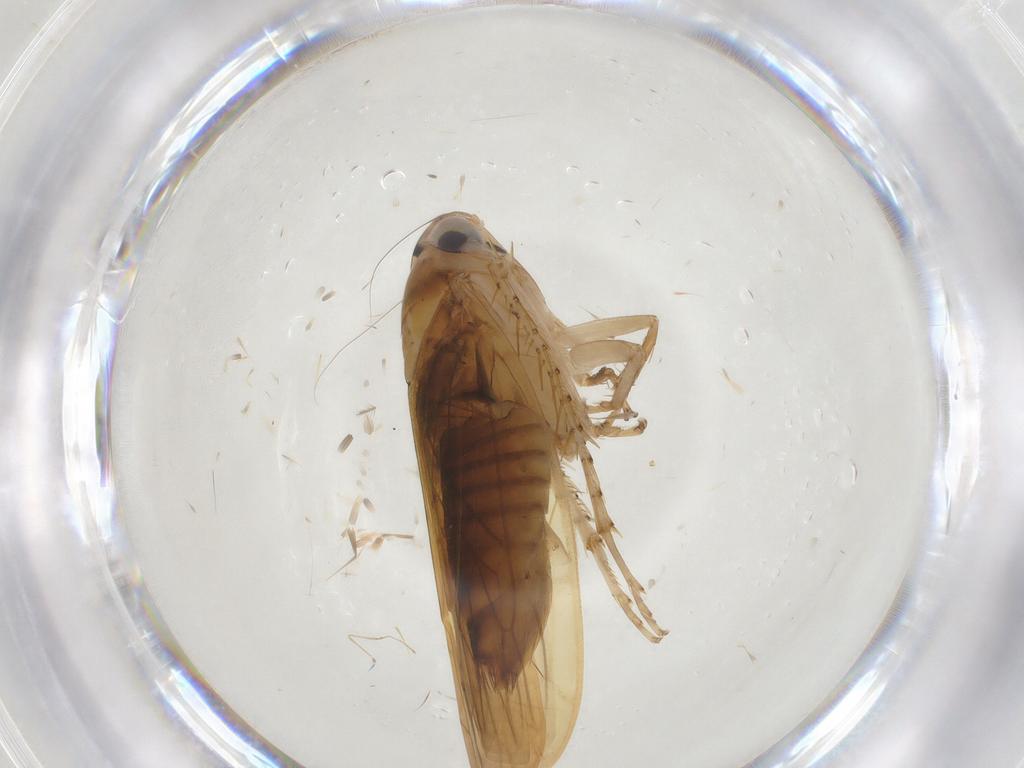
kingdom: Animalia
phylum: Arthropoda
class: Insecta
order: Hemiptera
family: Cicadellidae
